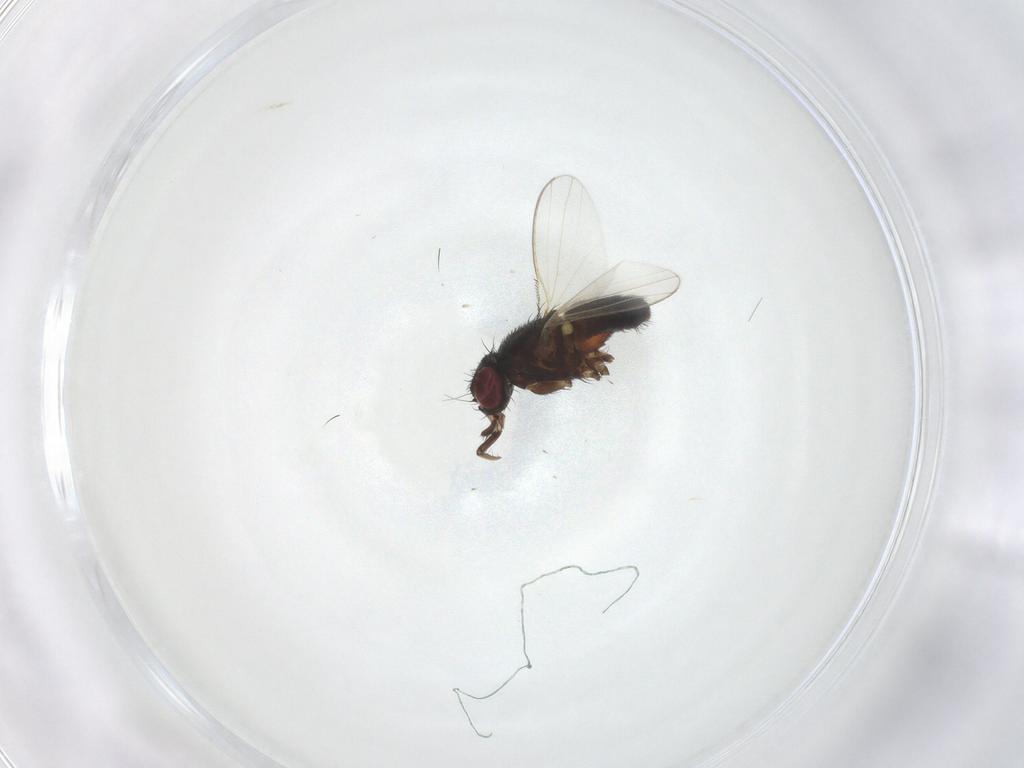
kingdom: Animalia
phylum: Arthropoda
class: Insecta
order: Diptera
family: Milichiidae
